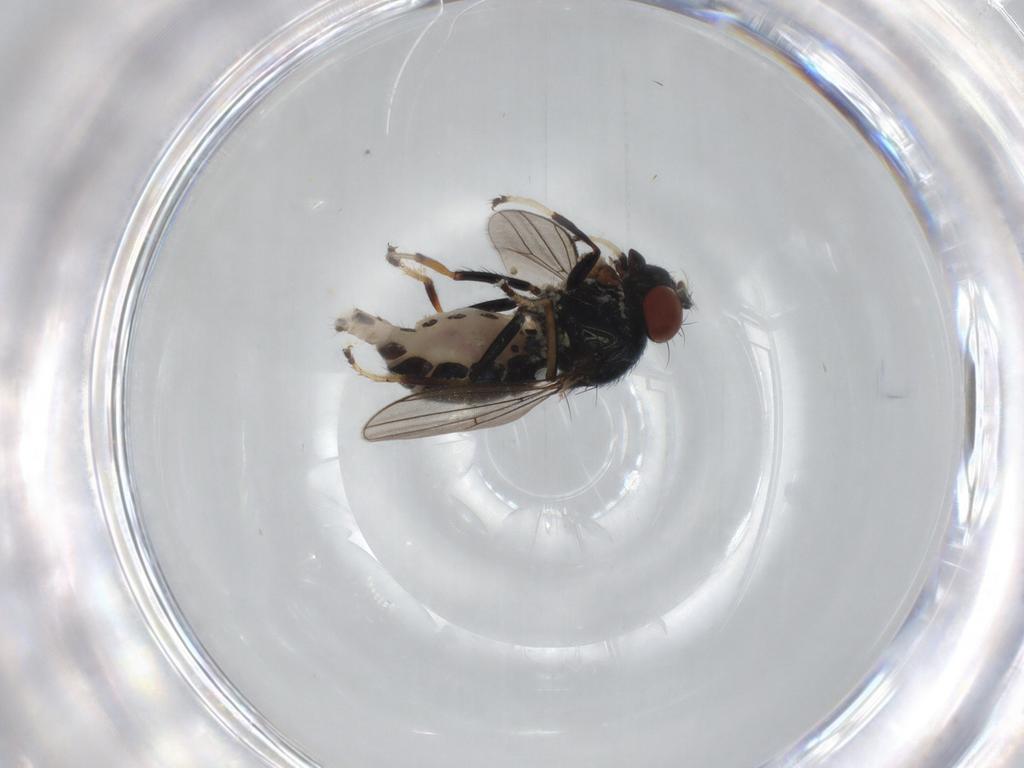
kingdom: Animalia
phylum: Arthropoda
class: Insecta
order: Diptera
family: Ephydridae
